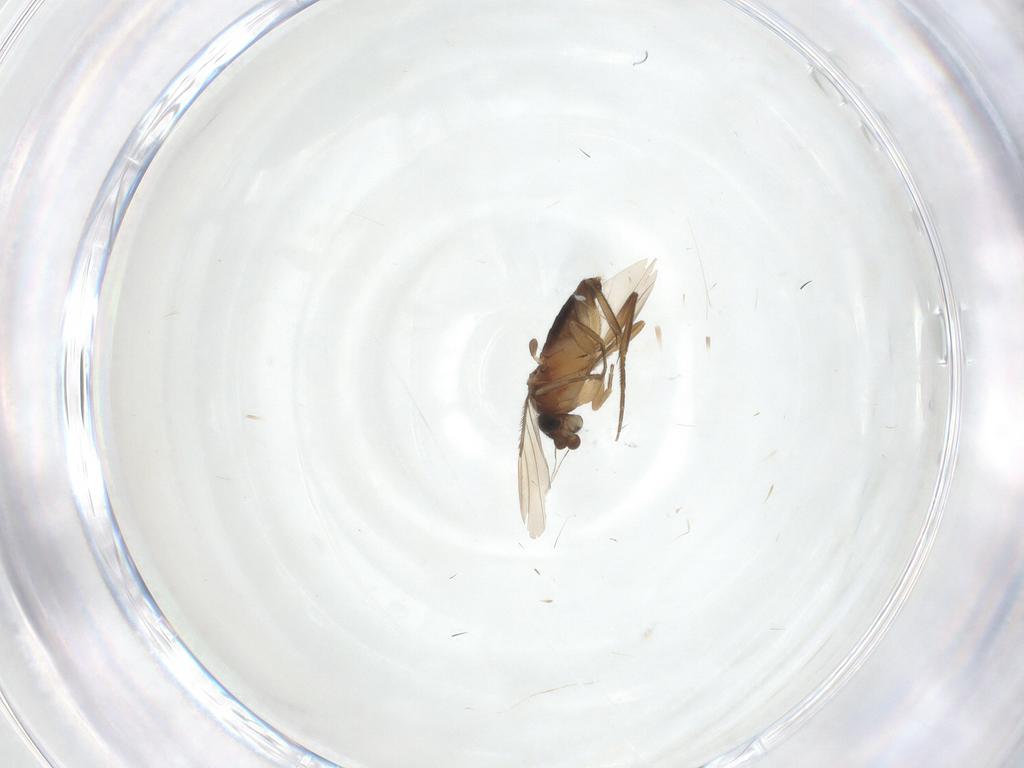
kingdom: Animalia
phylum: Arthropoda
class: Insecta
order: Diptera
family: Phoridae
